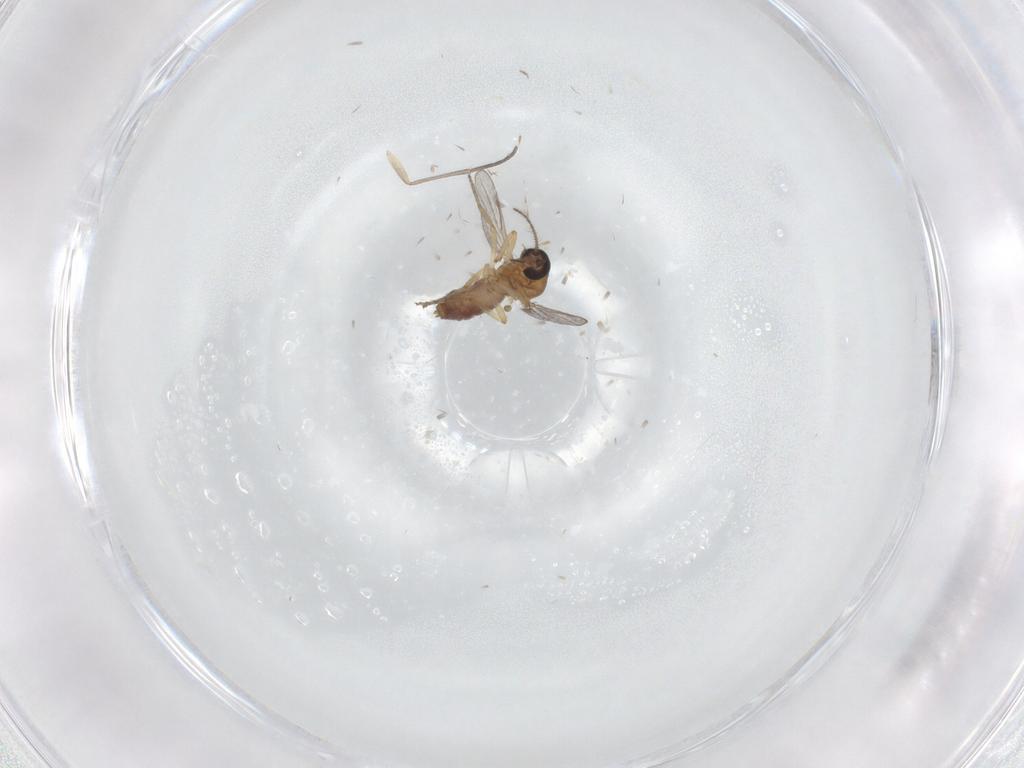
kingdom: Animalia
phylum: Arthropoda
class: Insecta
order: Diptera
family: Sciaridae
